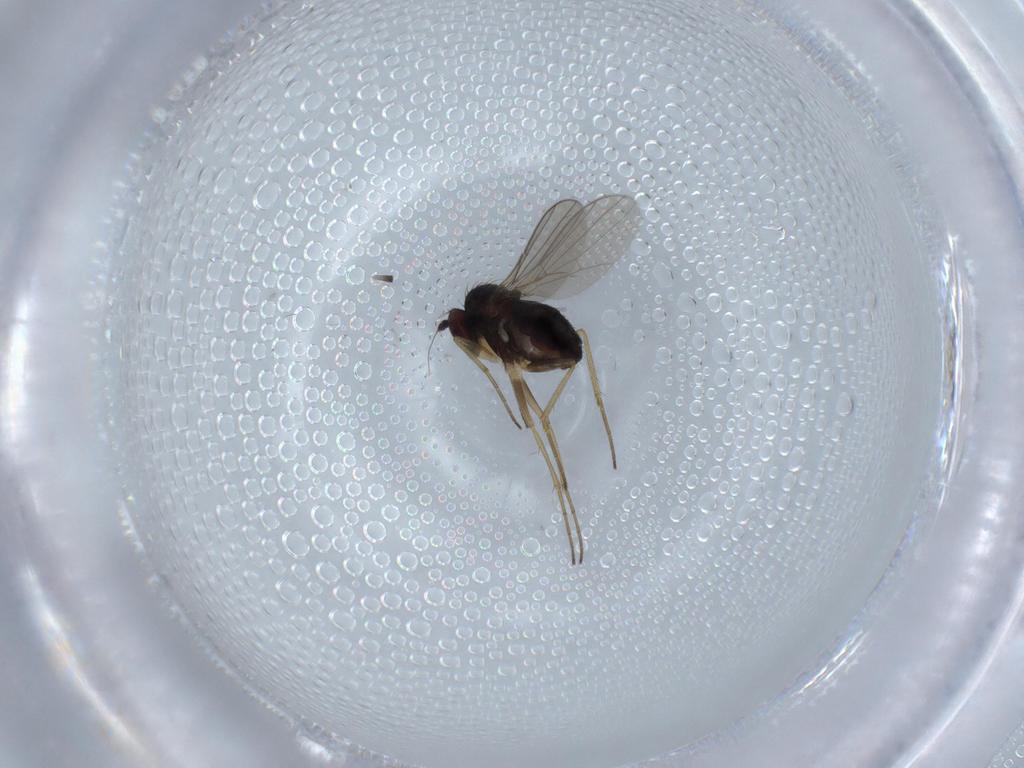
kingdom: Animalia
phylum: Arthropoda
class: Insecta
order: Diptera
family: Dolichopodidae
